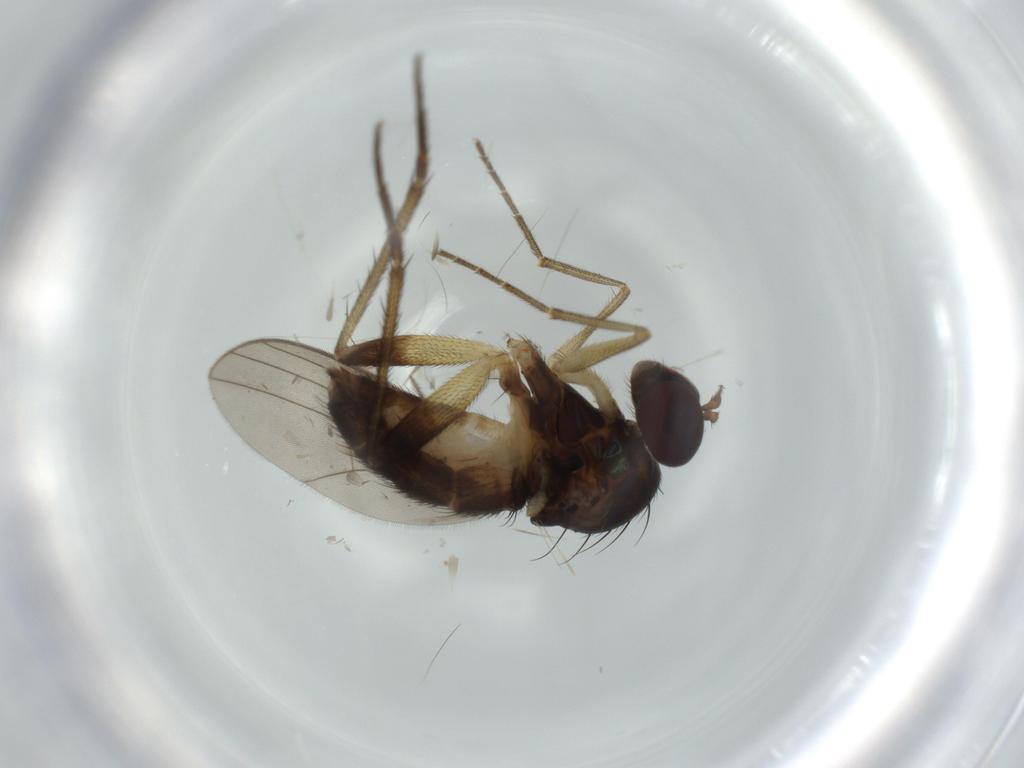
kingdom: Animalia
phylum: Arthropoda
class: Insecta
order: Diptera
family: Dolichopodidae
